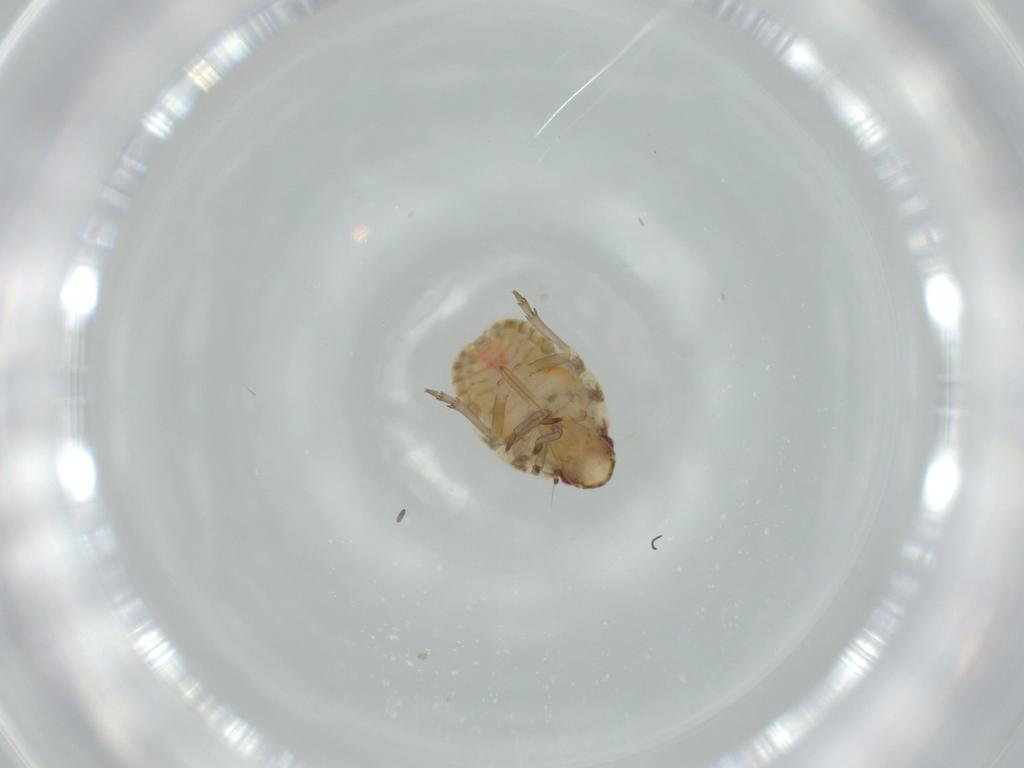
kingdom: Animalia
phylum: Arthropoda
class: Insecta
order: Hemiptera
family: Flatidae
